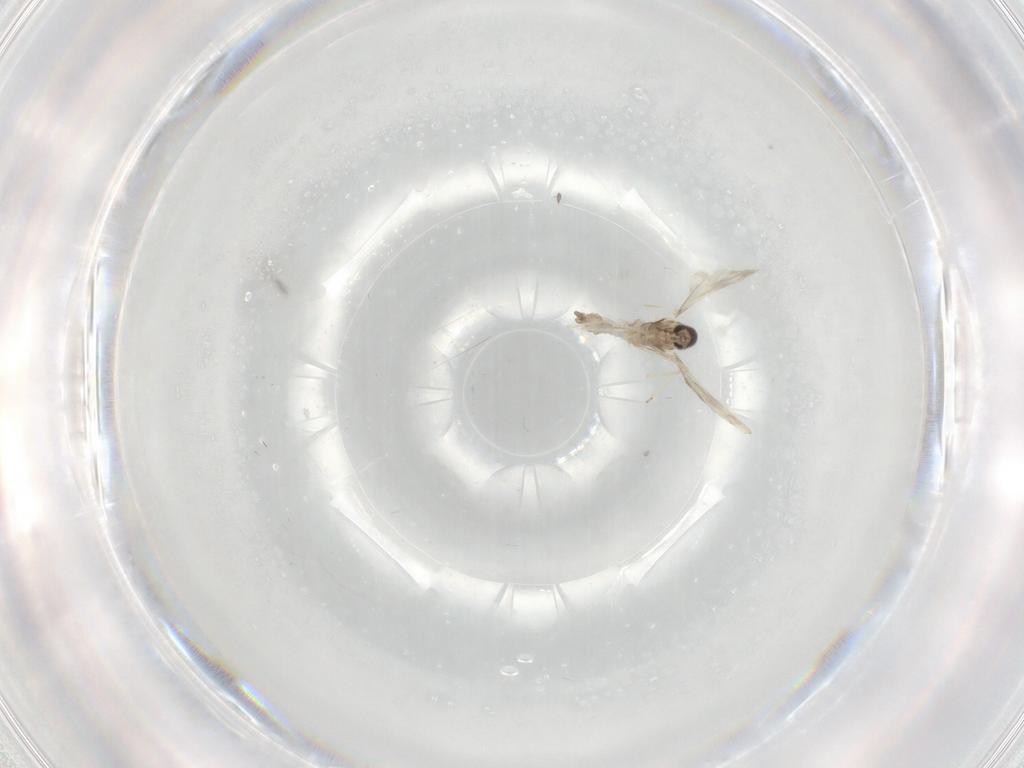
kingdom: Animalia
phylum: Arthropoda
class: Insecta
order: Diptera
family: Cecidomyiidae
